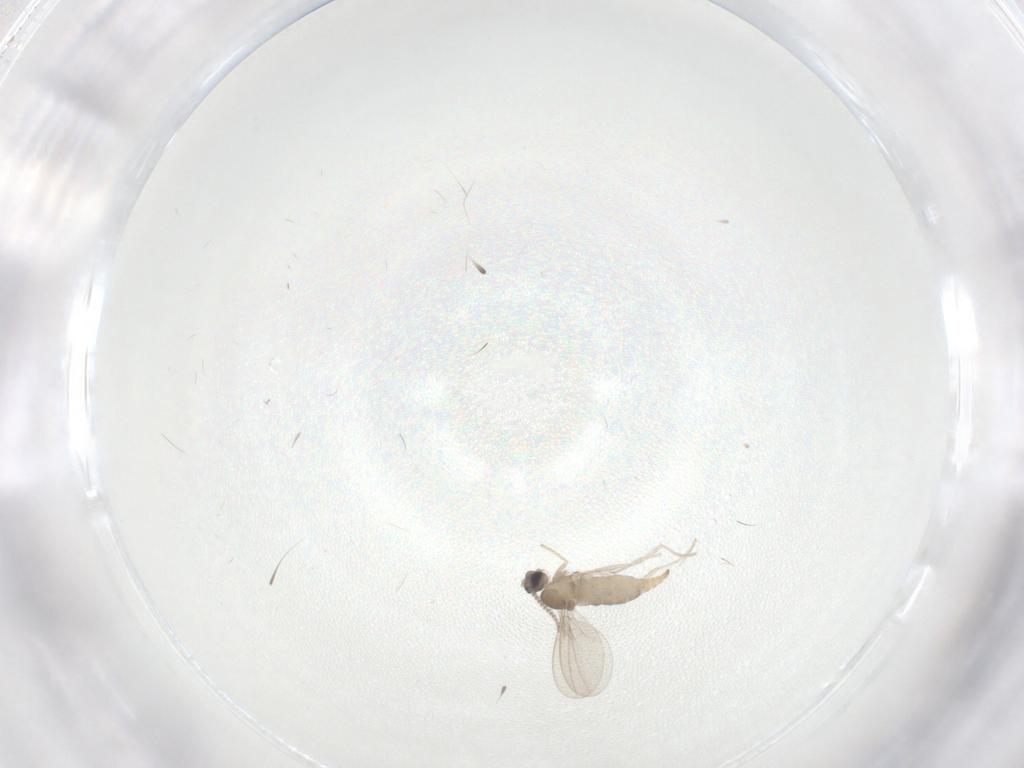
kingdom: Animalia
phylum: Arthropoda
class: Insecta
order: Diptera
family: Cecidomyiidae
